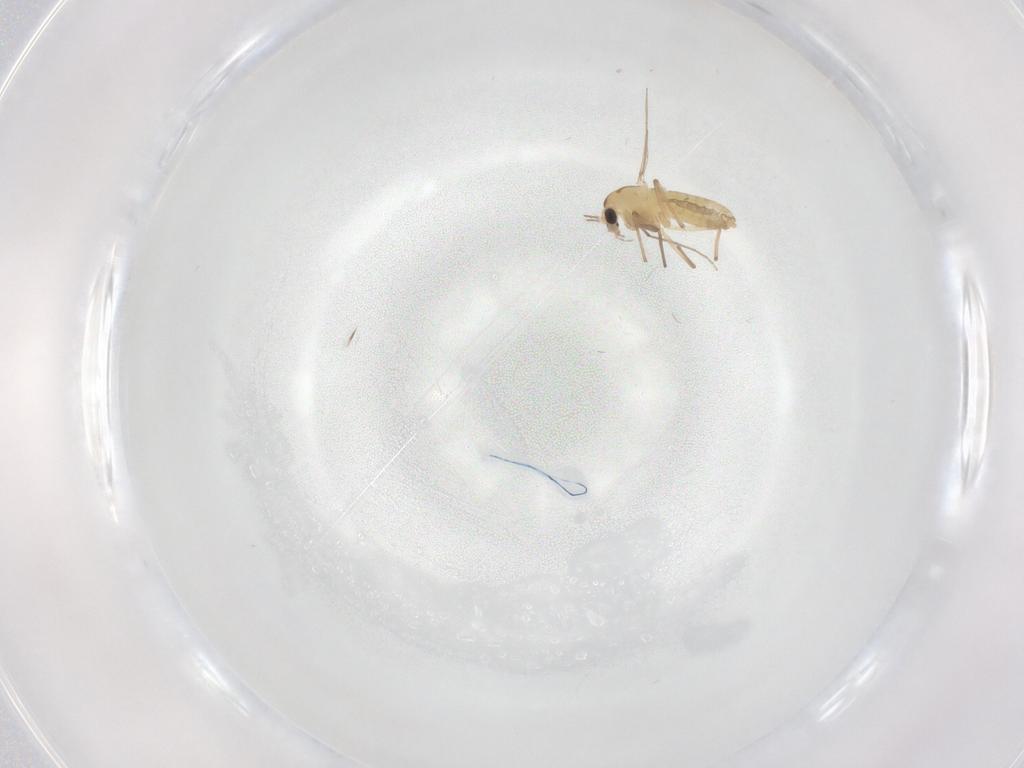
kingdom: Animalia
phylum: Arthropoda
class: Insecta
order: Diptera
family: Chironomidae
